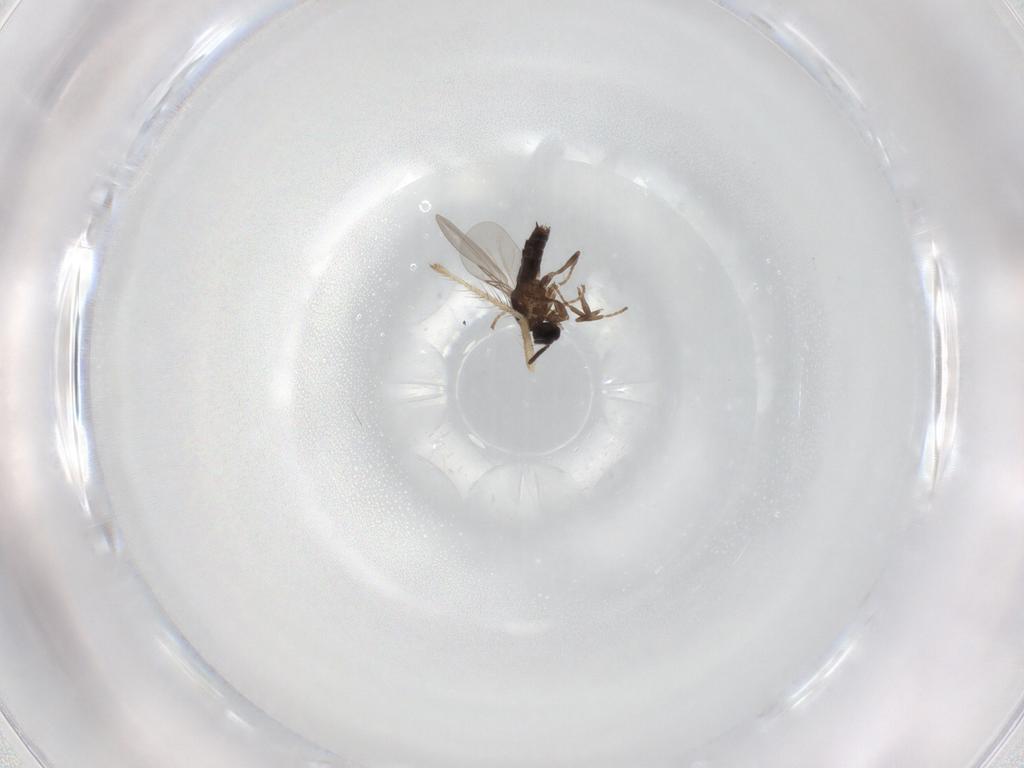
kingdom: Animalia
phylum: Arthropoda
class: Insecta
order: Diptera
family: Scatopsidae
